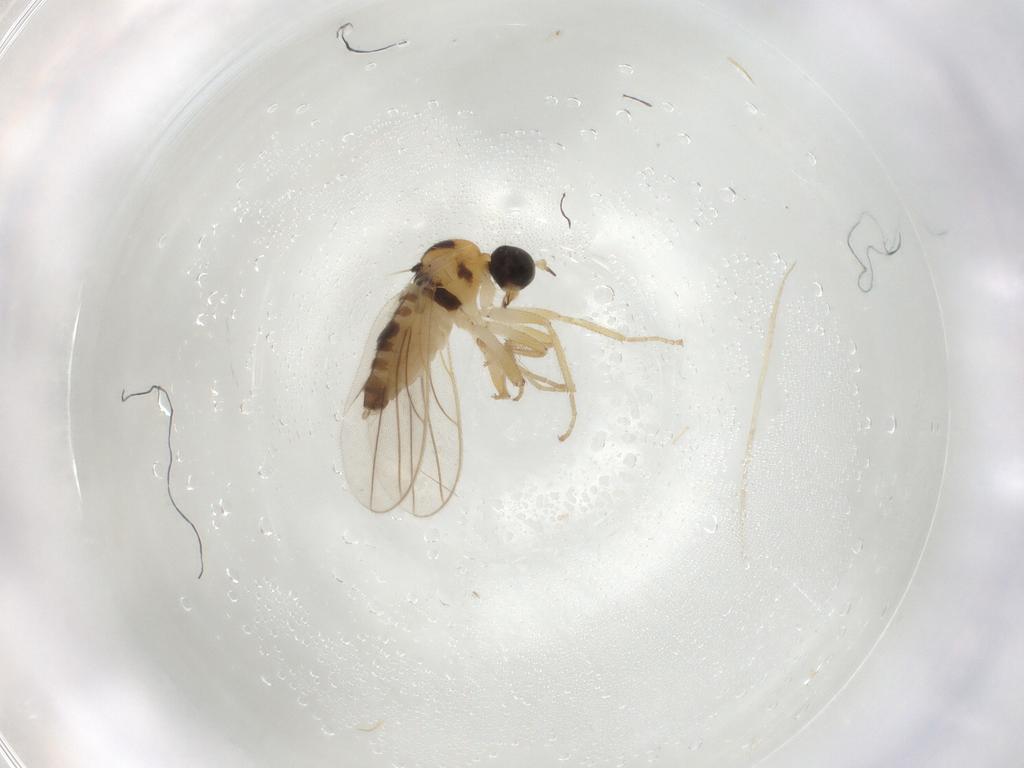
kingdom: Animalia
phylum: Arthropoda
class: Insecta
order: Diptera
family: Hybotidae
